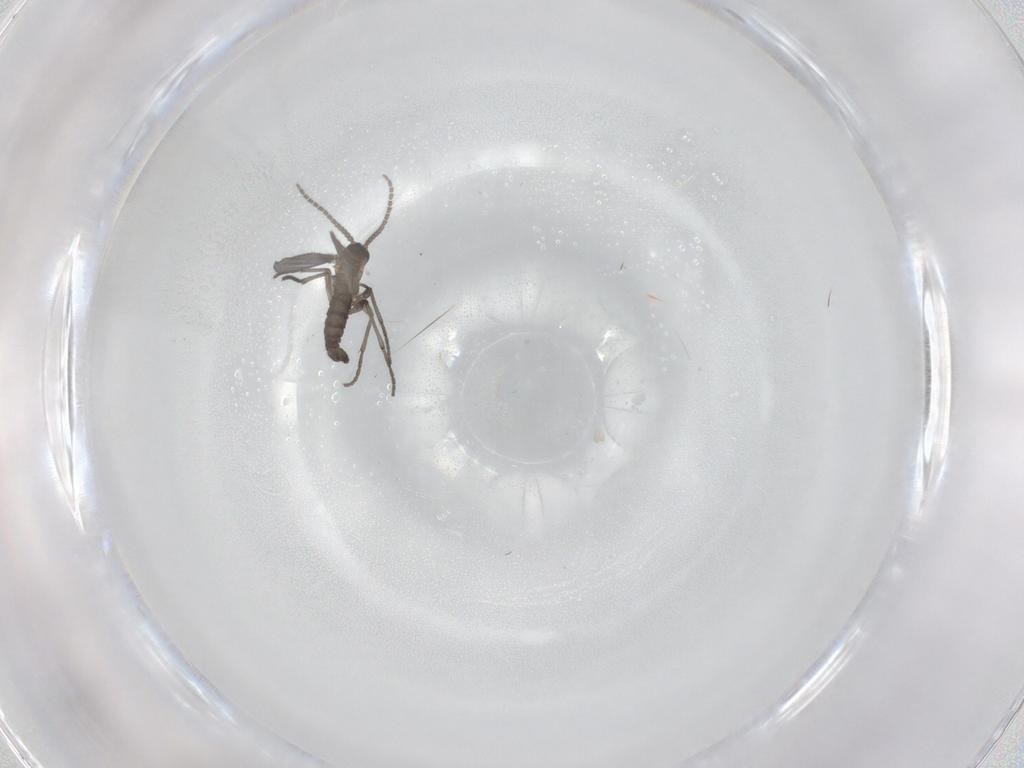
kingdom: Animalia
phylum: Arthropoda
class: Insecta
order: Diptera
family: Sciaridae
